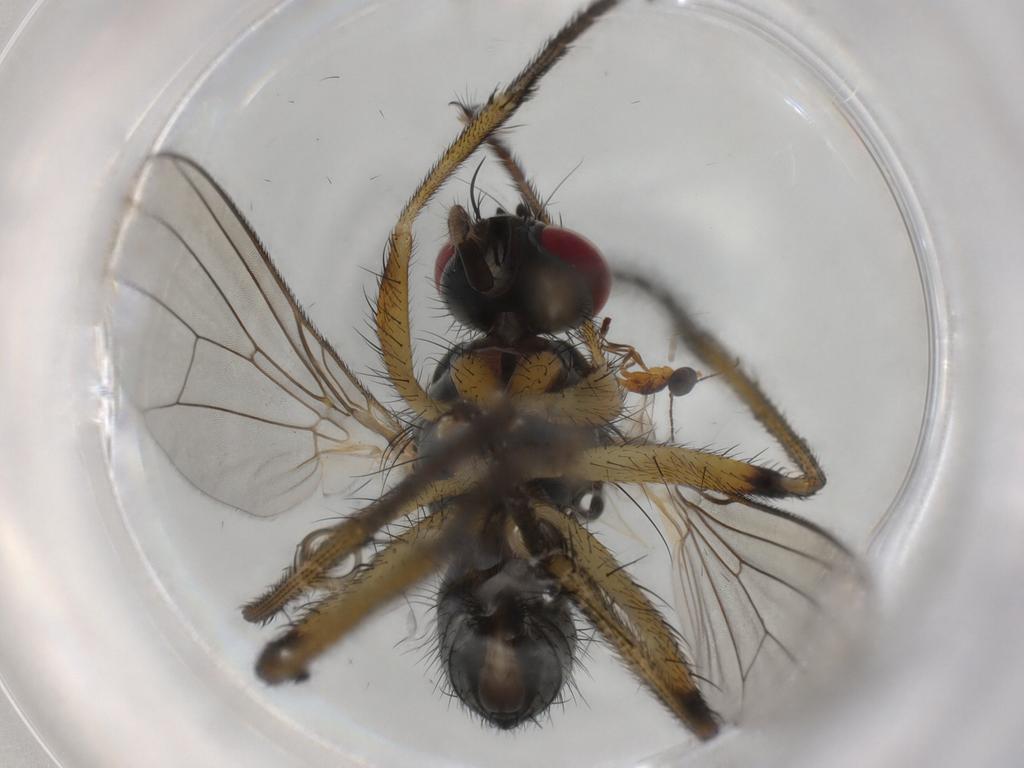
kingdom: Animalia
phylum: Arthropoda
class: Insecta
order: Diptera
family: Muscidae
